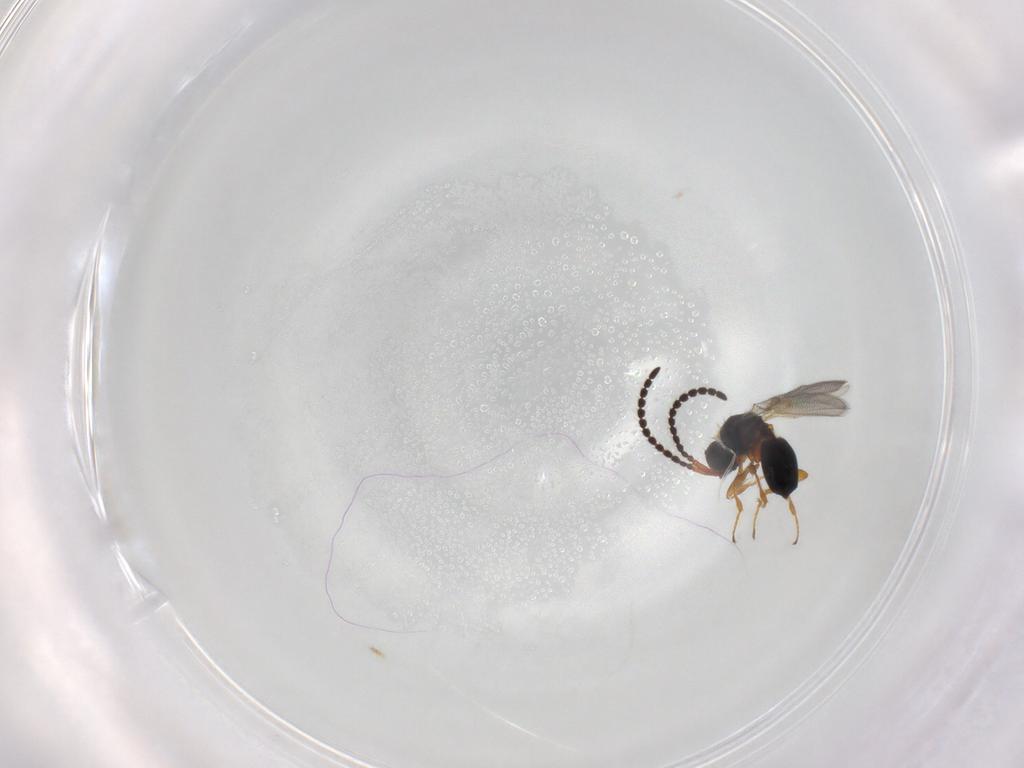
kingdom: Animalia
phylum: Arthropoda
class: Insecta
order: Hymenoptera
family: Diapriidae
